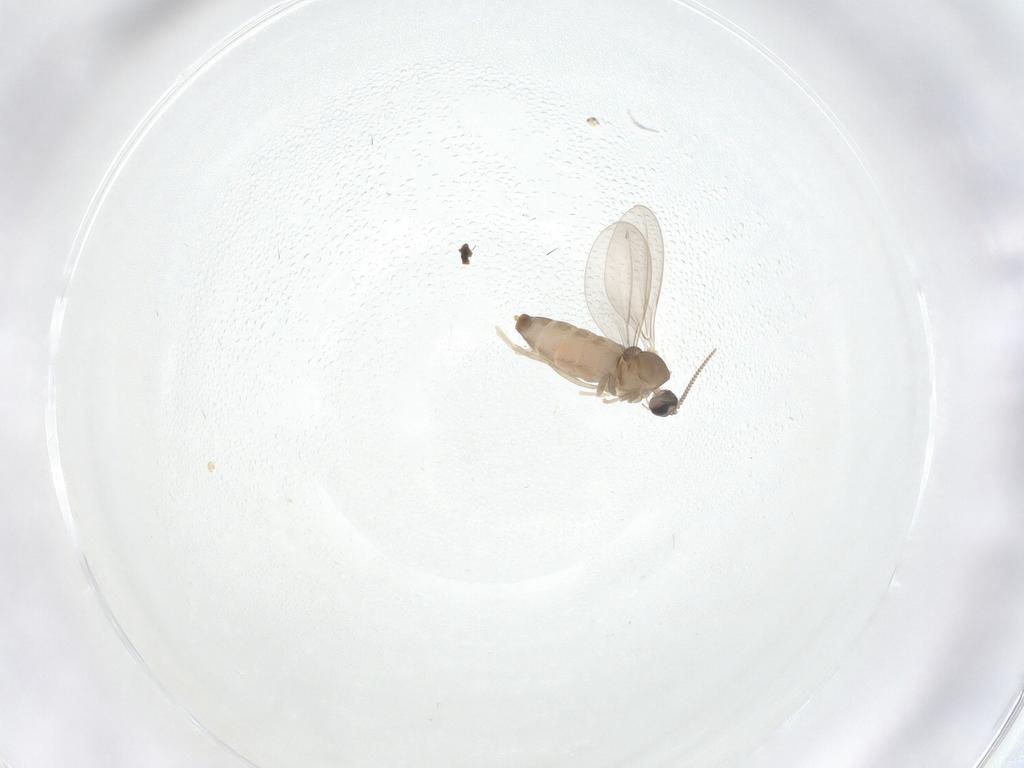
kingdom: Animalia
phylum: Arthropoda
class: Insecta
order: Diptera
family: Cecidomyiidae
